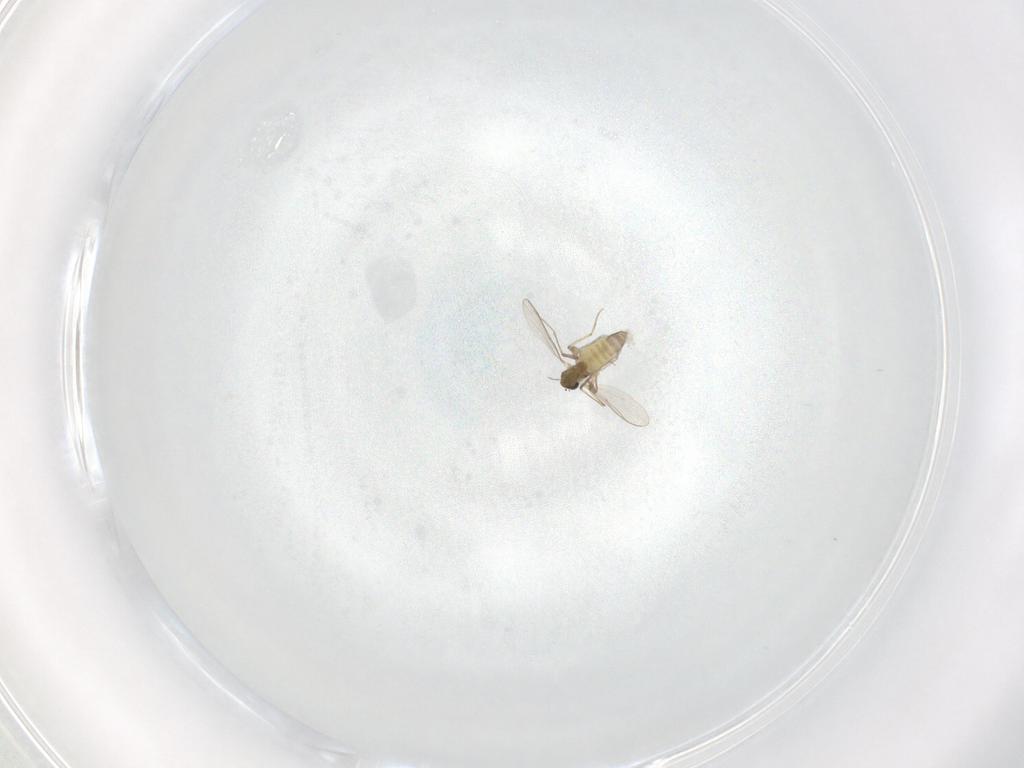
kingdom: Animalia
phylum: Arthropoda
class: Insecta
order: Diptera
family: Chironomidae
